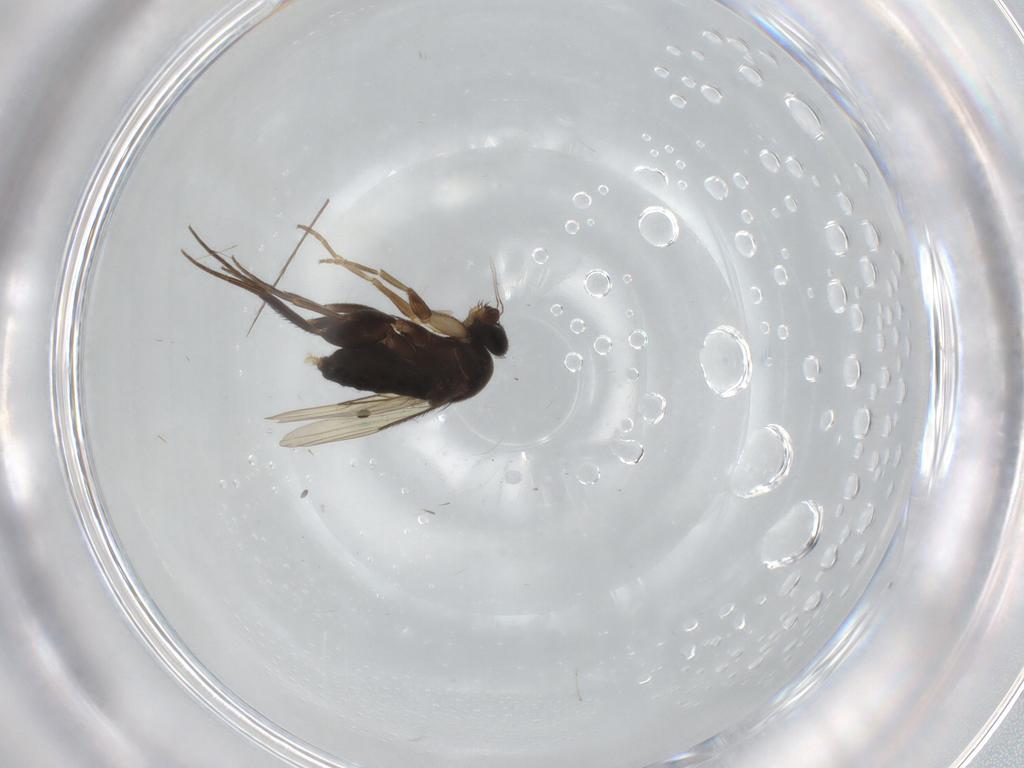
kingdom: Animalia
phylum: Arthropoda
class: Insecta
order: Diptera
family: Phoridae
